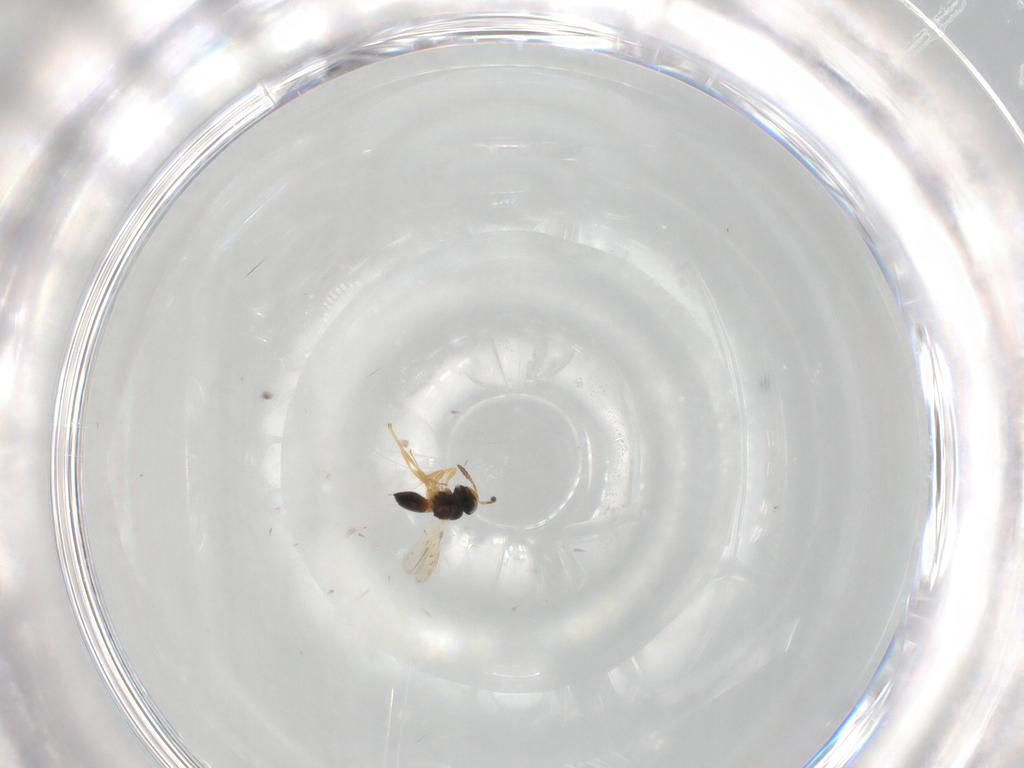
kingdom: Animalia
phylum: Arthropoda
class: Insecta
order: Hymenoptera
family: Scelionidae
